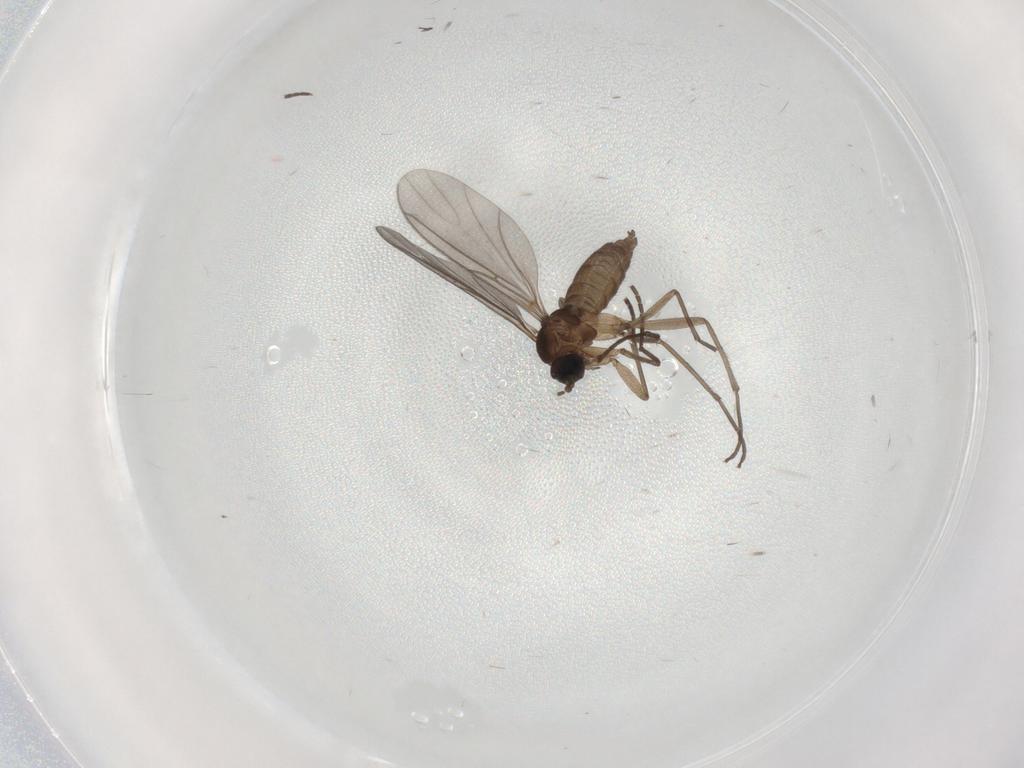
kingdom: Animalia
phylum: Arthropoda
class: Insecta
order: Diptera
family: Sciaridae
